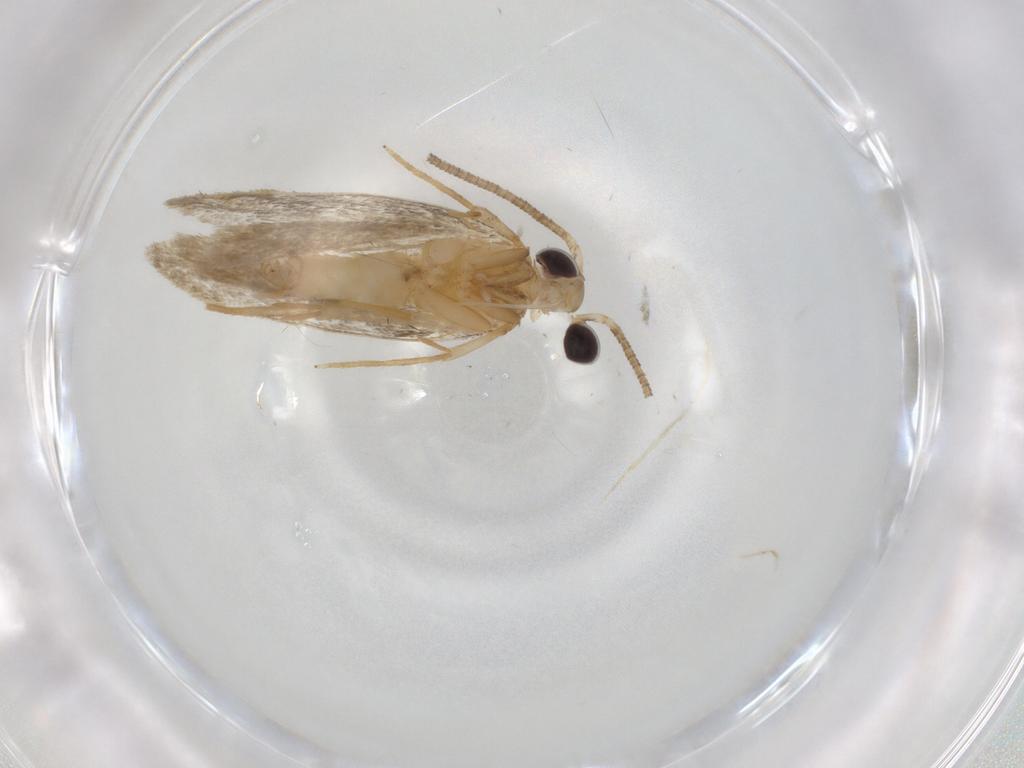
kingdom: Animalia
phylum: Arthropoda
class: Insecta
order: Lepidoptera
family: Autostichidae
